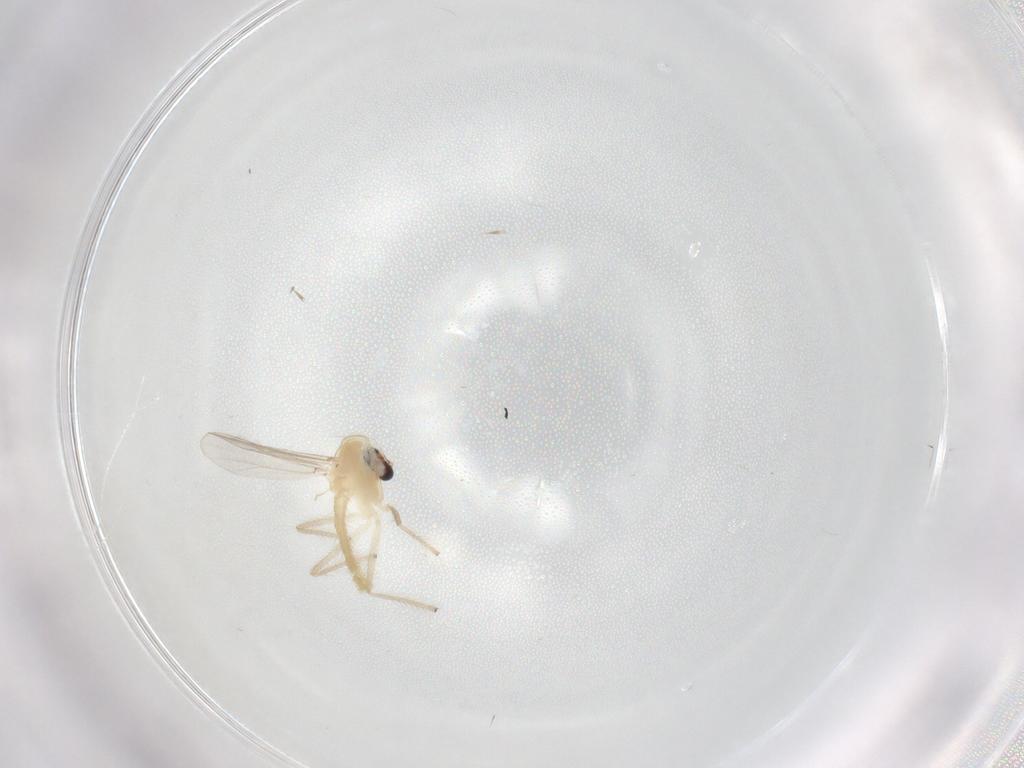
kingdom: Animalia
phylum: Arthropoda
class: Insecta
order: Diptera
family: Chironomidae
